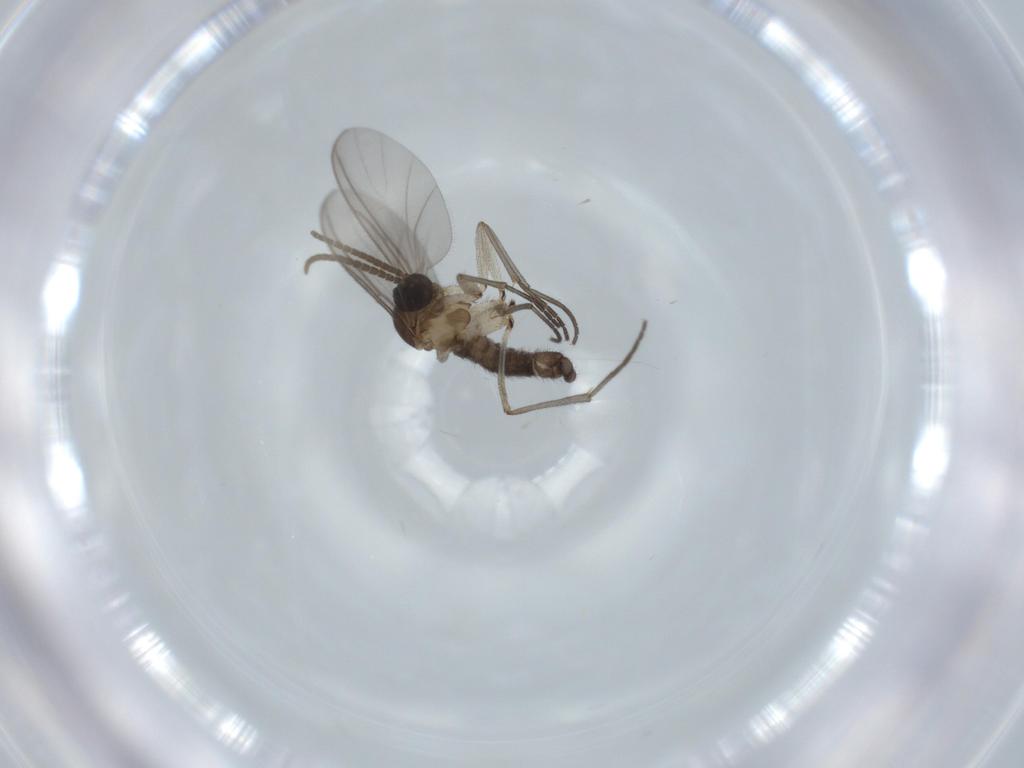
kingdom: Animalia
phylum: Arthropoda
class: Insecta
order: Diptera
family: Sciaridae
